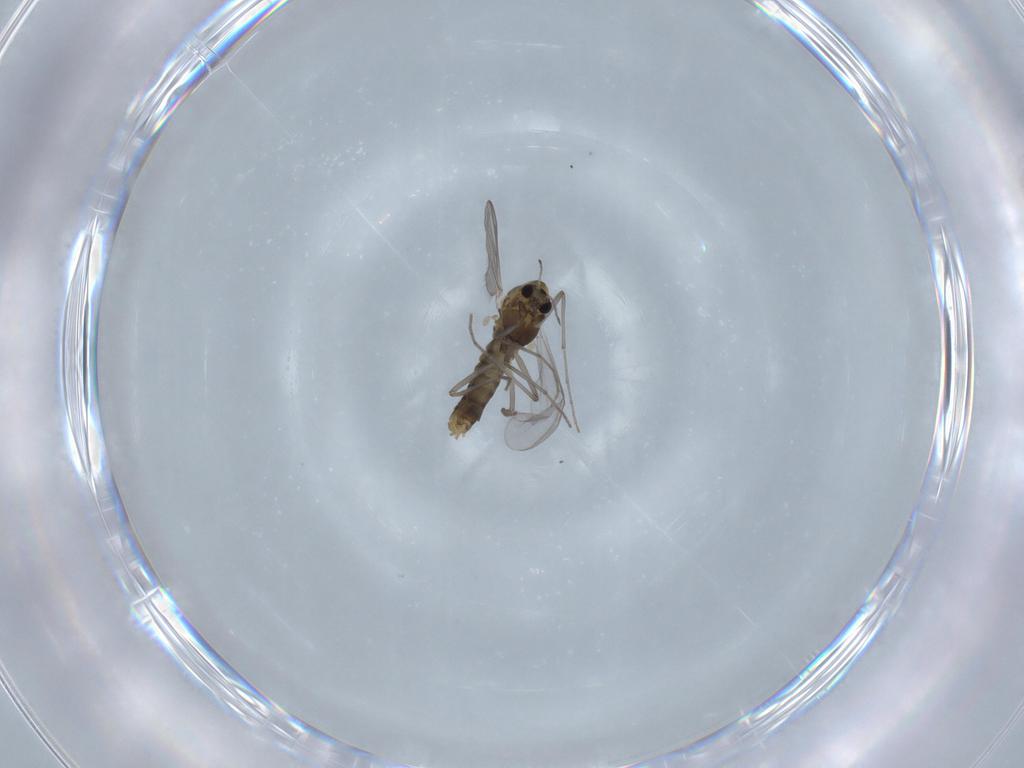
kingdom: Animalia
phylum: Arthropoda
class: Insecta
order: Diptera
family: Chironomidae
